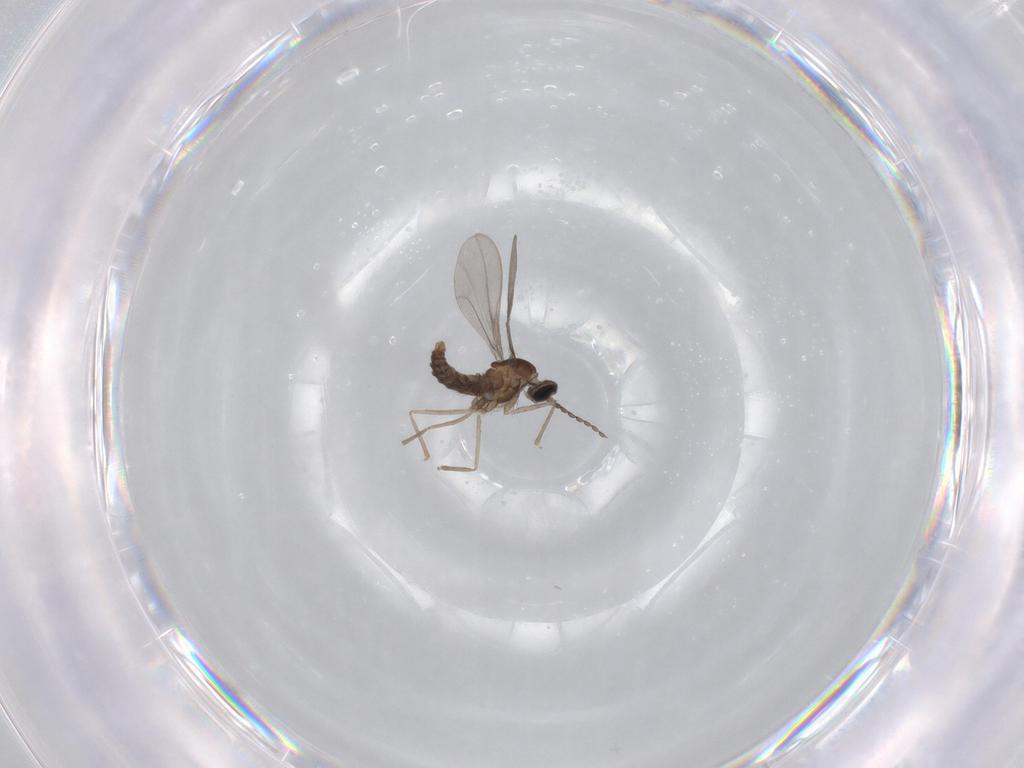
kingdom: Animalia
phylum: Arthropoda
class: Insecta
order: Diptera
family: Cecidomyiidae
